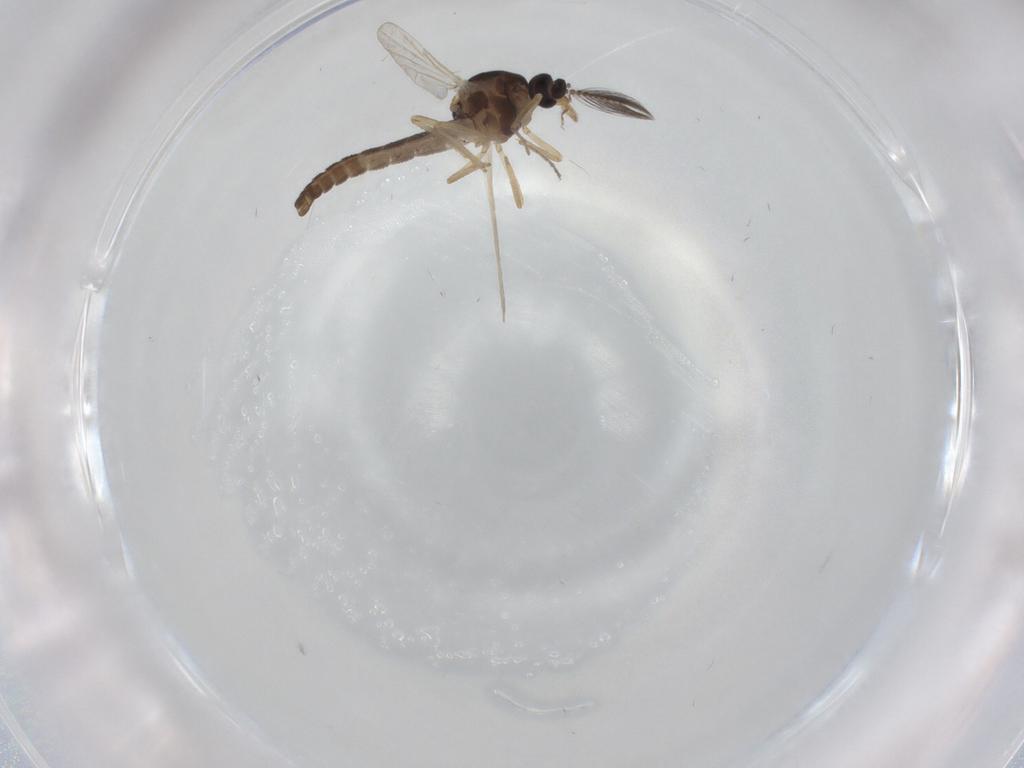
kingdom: Animalia
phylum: Arthropoda
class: Insecta
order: Diptera
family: Ceratopogonidae
